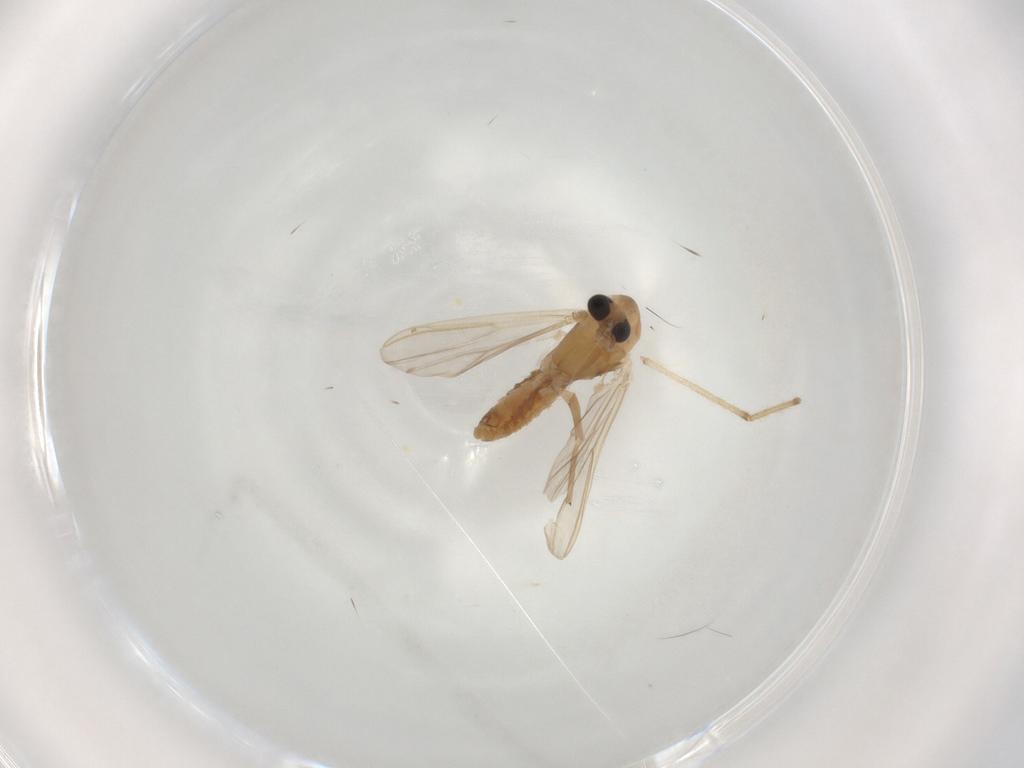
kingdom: Animalia
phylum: Arthropoda
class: Insecta
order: Diptera
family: Chironomidae
